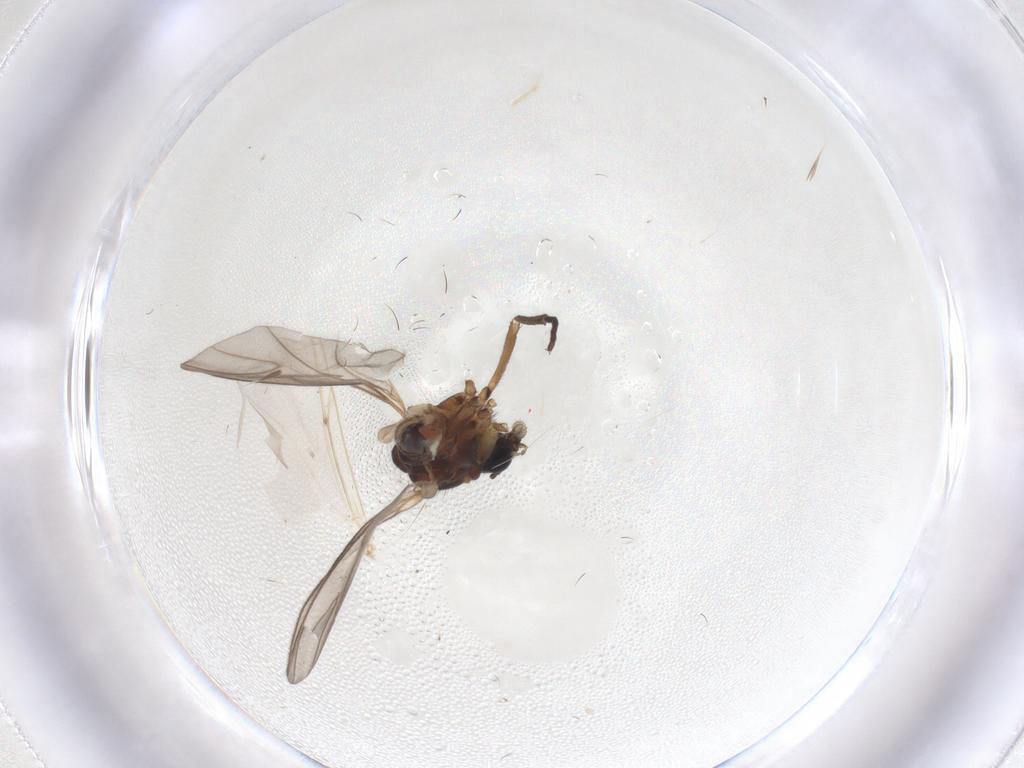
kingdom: Animalia
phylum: Arthropoda
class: Insecta
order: Diptera
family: Sciaridae
